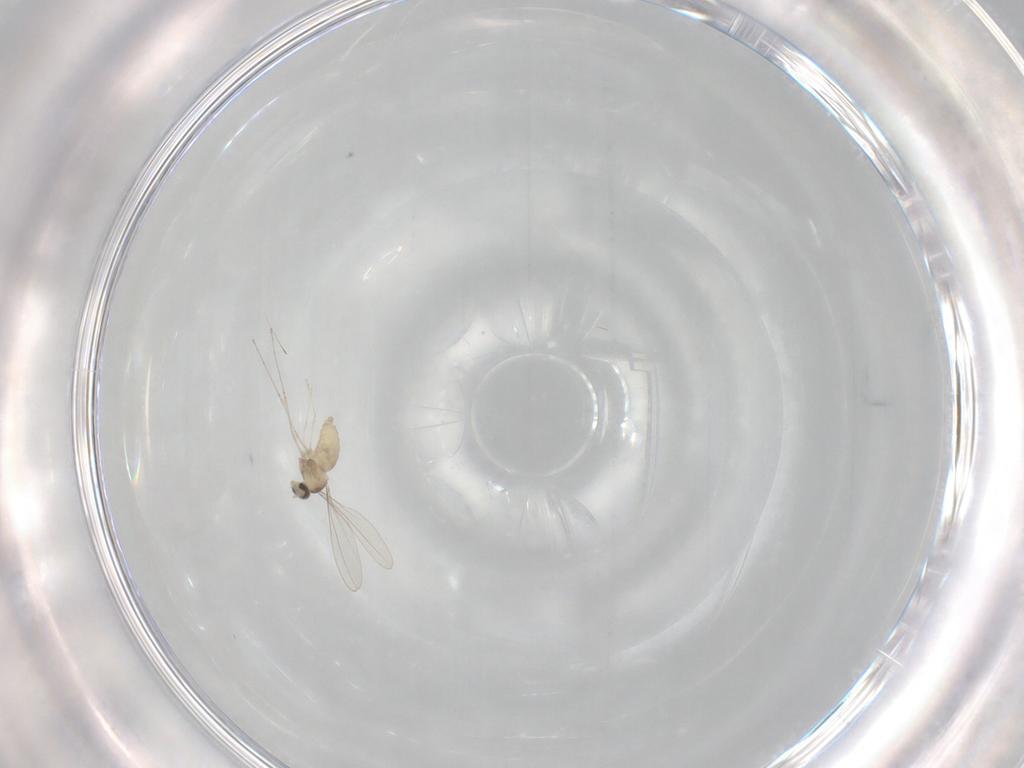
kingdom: Animalia
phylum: Arthropoda
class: Insecta
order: Diptera
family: Cecidomyiidae
